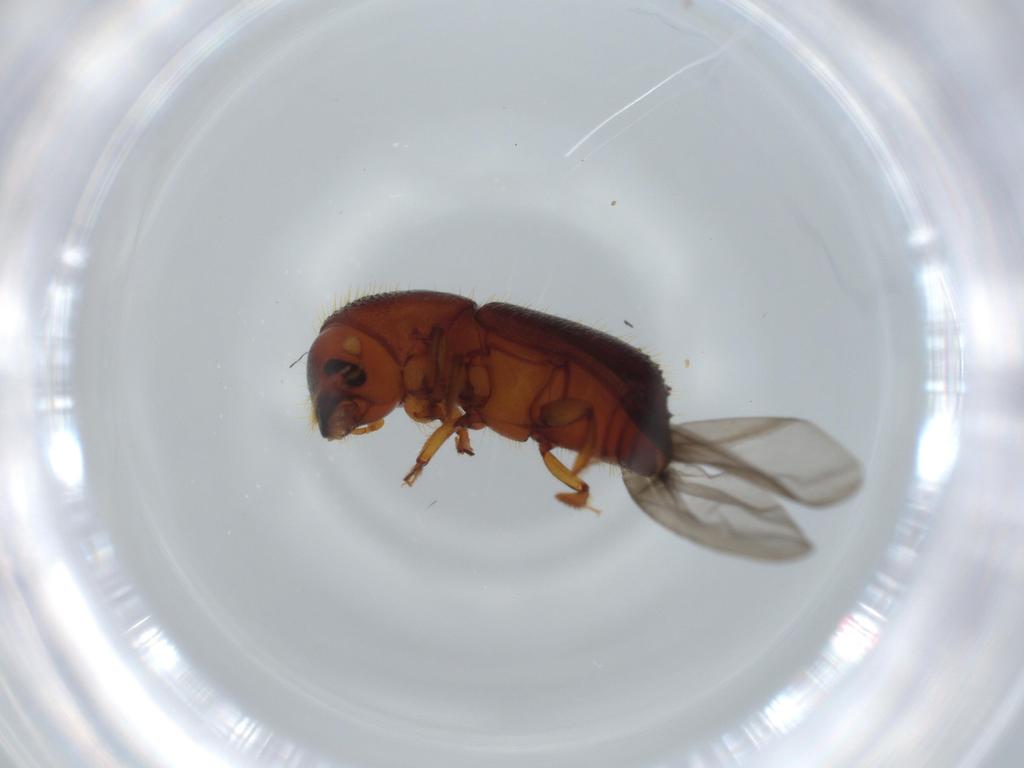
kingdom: Animalia
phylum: Arthropoda
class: Insecta
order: Coleoptera
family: Curculionidae
